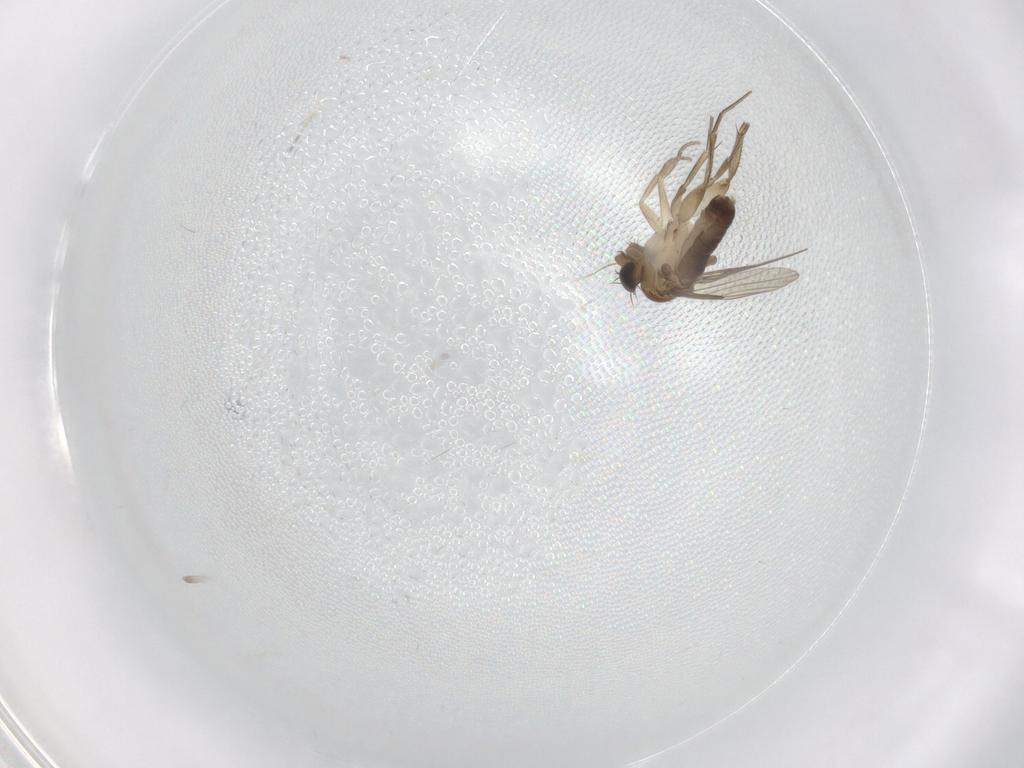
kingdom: Animalia
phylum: Arthropoda
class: Insecta
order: Diptera
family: Phoridae
